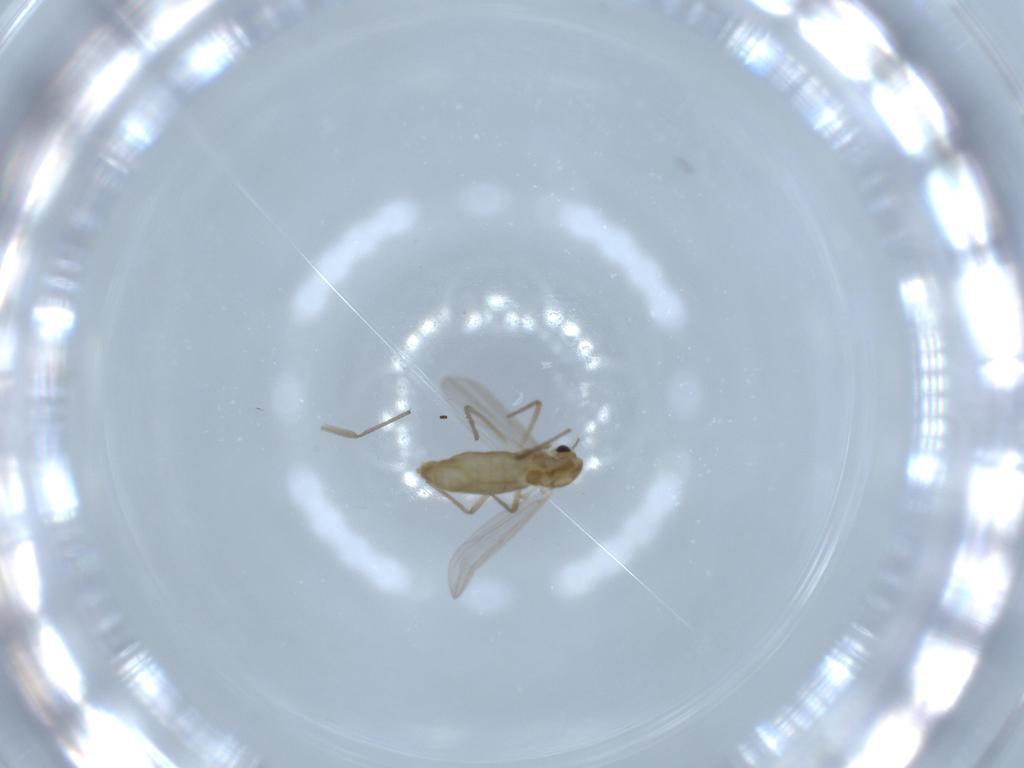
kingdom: Animalia
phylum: Arthropoda
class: Insecta
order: Diptera
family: Chironomidae
